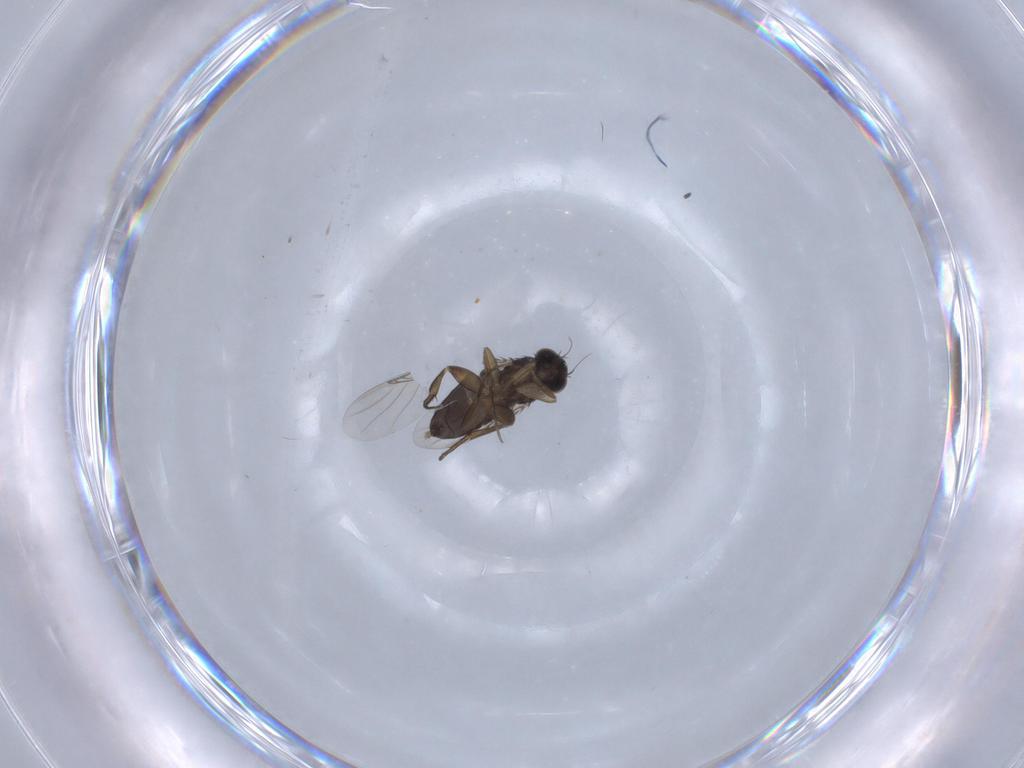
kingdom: Animalia
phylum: Arthropoda
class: Insecta
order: Diptera
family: Phoridae
